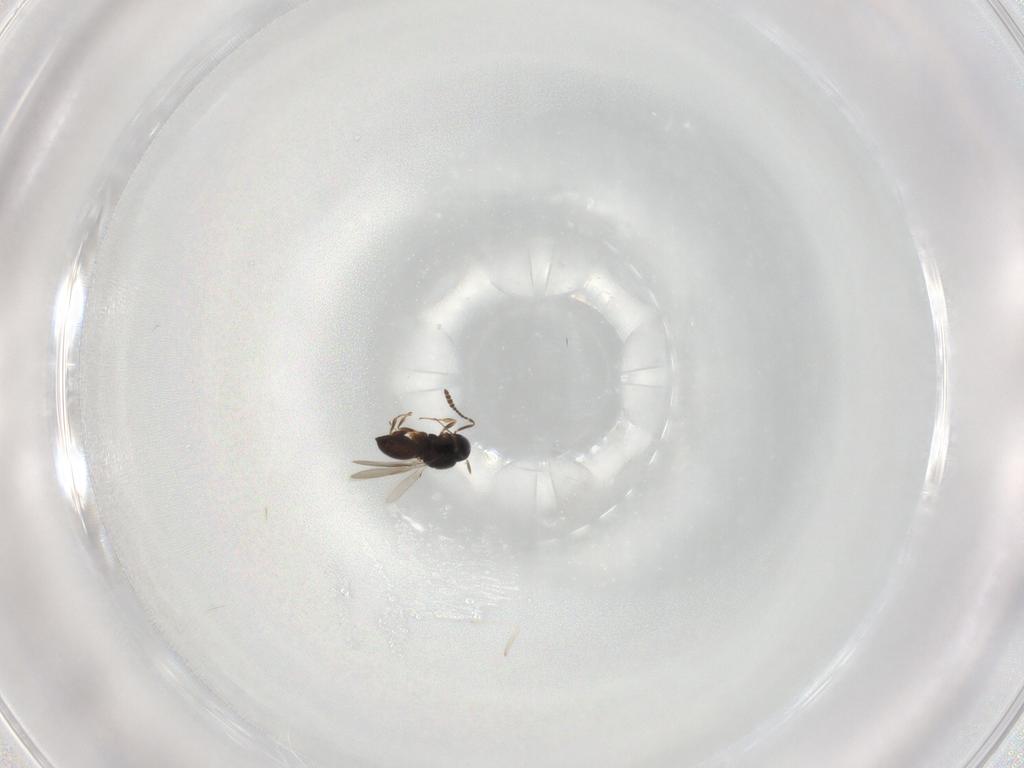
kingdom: Animalia
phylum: Arthropoda
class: Insecta
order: Hymenoptera
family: Scelionidae
